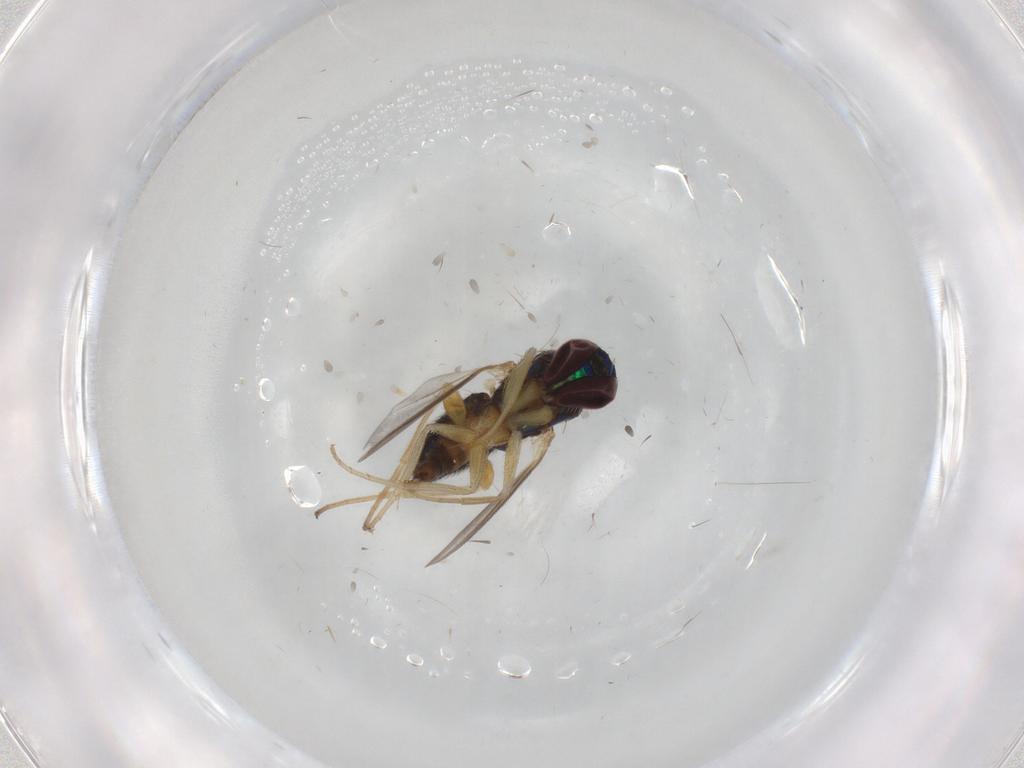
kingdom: Animalia
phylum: Arthropoda
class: Insecta
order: Diptera
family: Dolichopodidae
